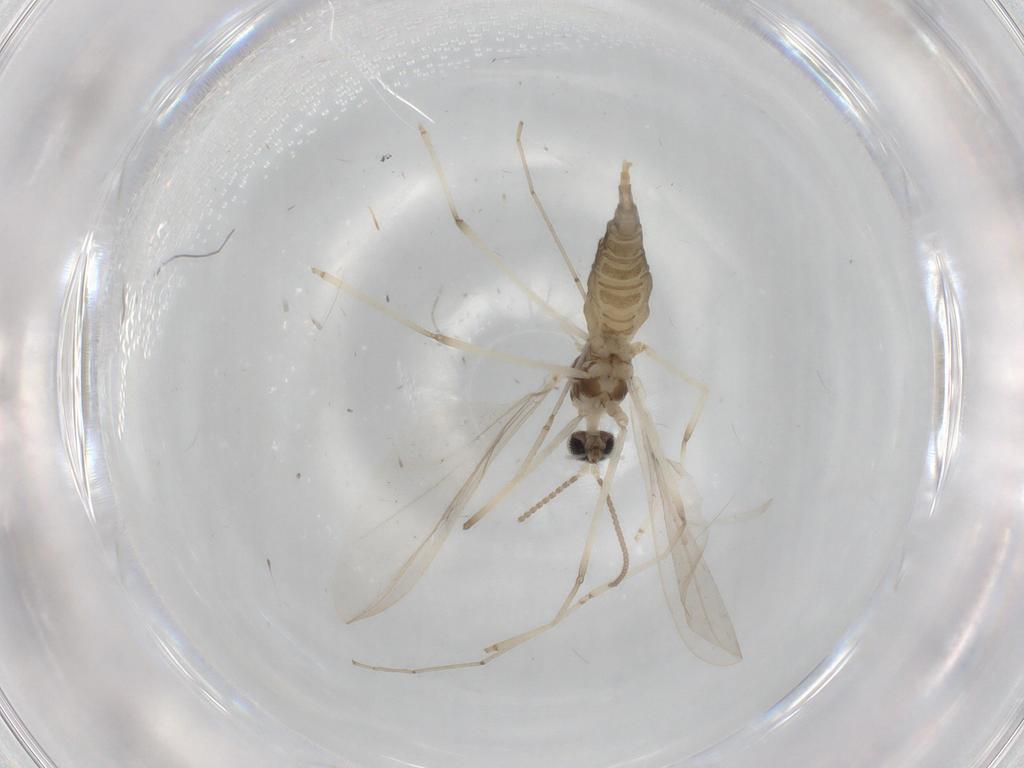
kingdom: Animalia
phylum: Arthropoda
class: Insecta
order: Diptera
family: Cecidomyiidae
